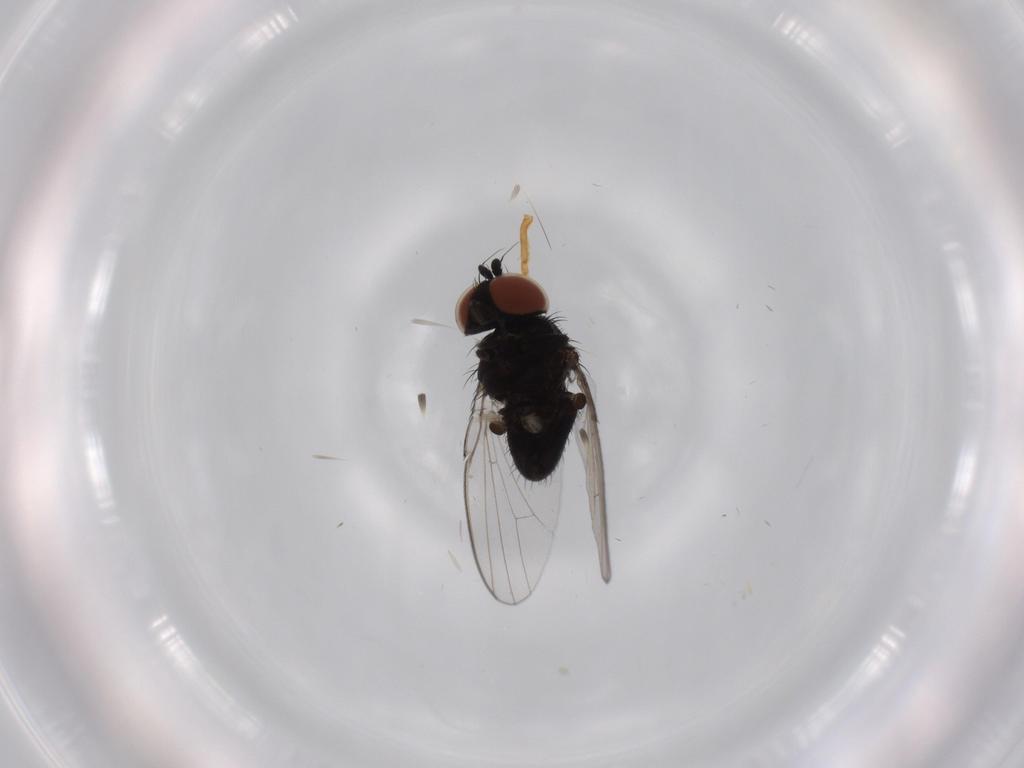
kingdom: Animalia
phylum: Arthropoda
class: Insecta
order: Diptera
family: Milichiidae
